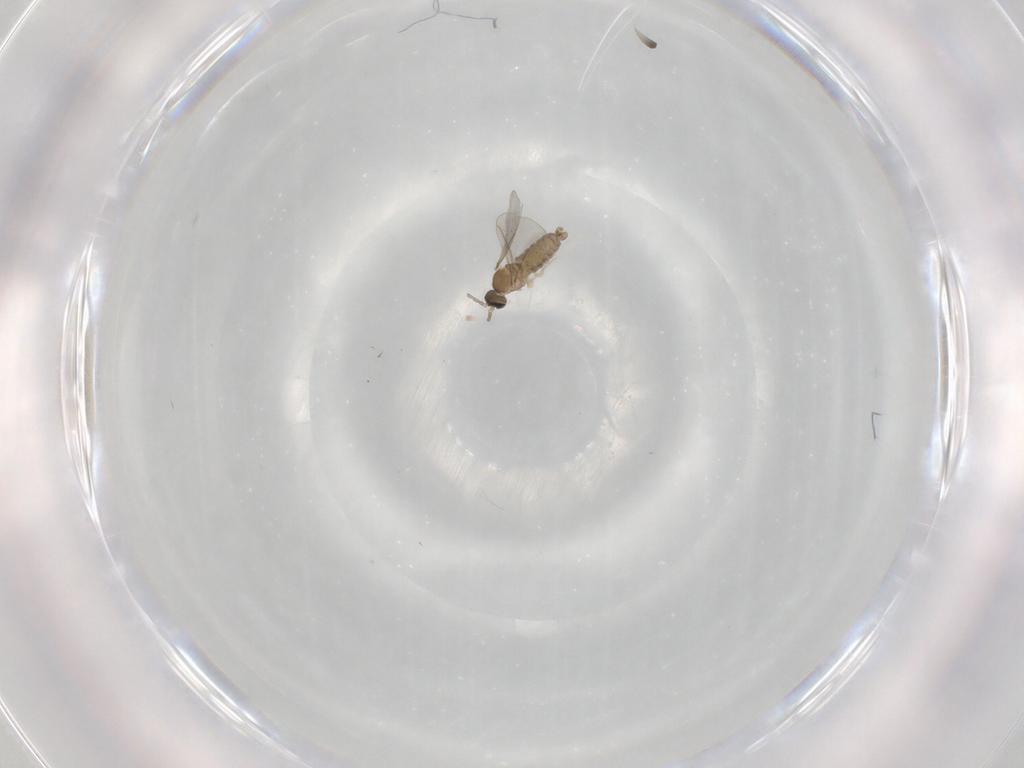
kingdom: Animalia
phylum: Arthropoda
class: Insecta
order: Diptera
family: Cecidomyiidae
